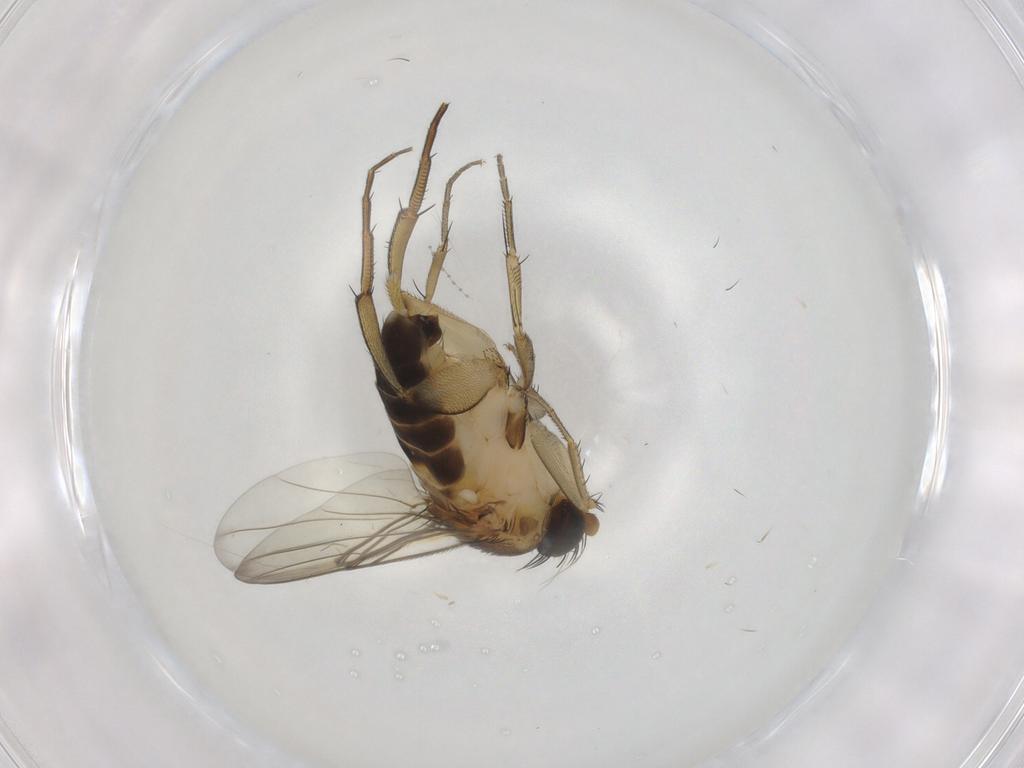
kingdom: Animalia
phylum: Arthropoda
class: Insecta
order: Diptera
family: Phoridae
